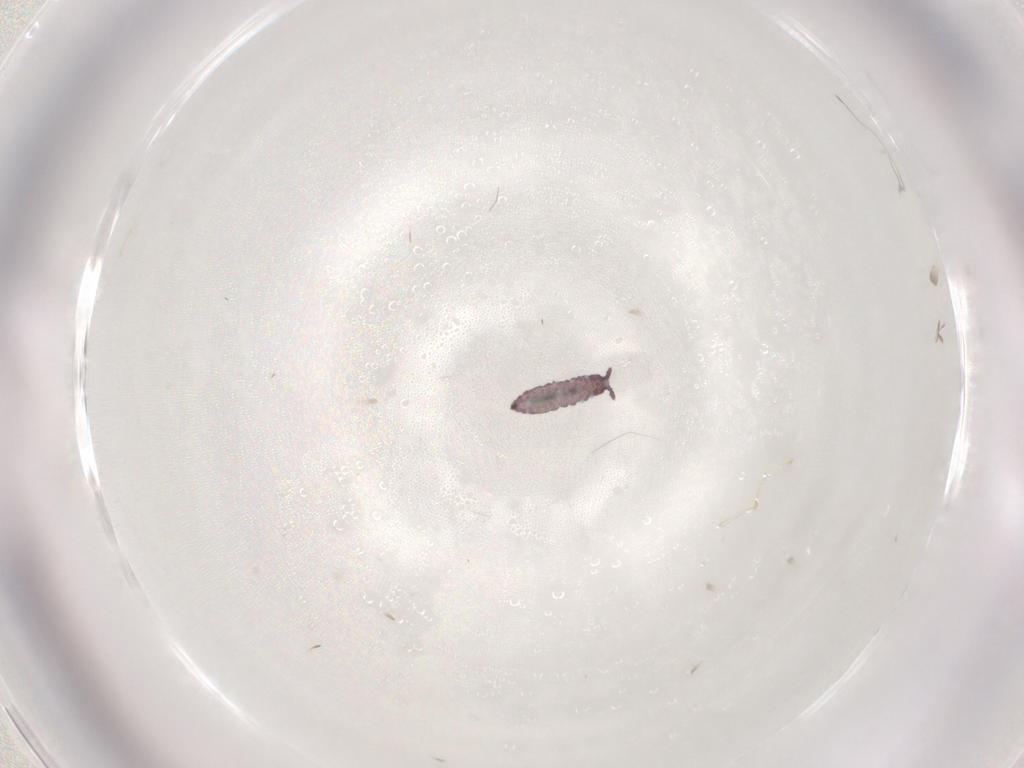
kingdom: Animalia
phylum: Arthropoda
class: Collembola
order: Poduromorpha
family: Hypogastruridae
